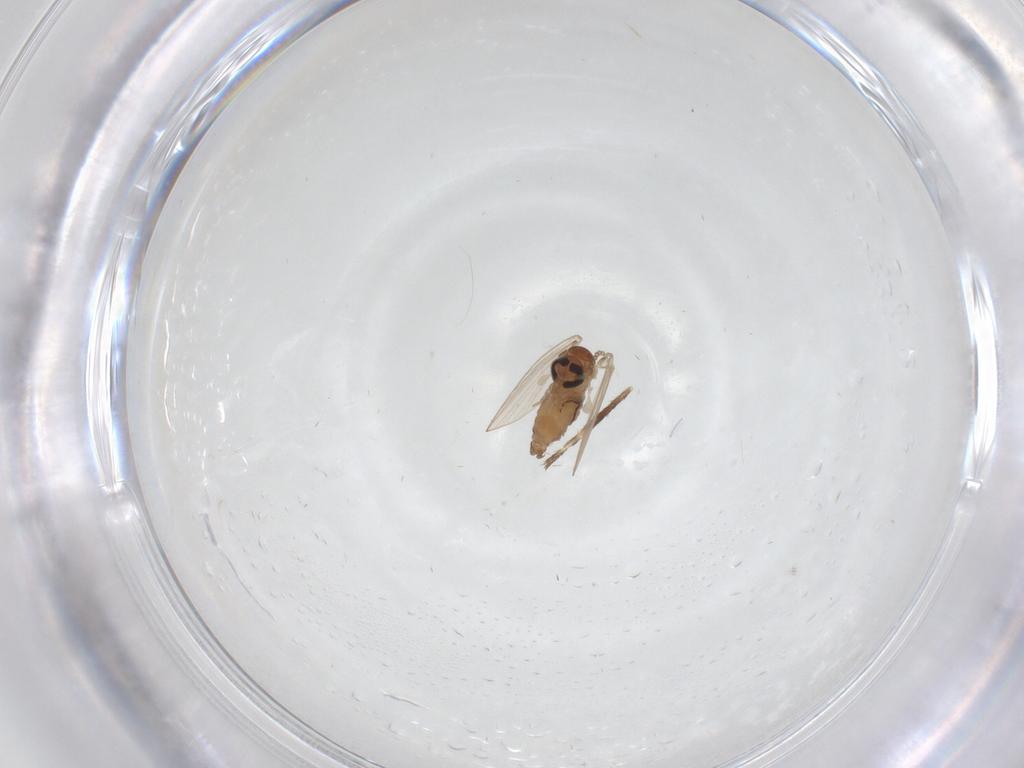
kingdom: Animalia
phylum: Arthropoda
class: Insecta
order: Diptera
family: Psychodidae
